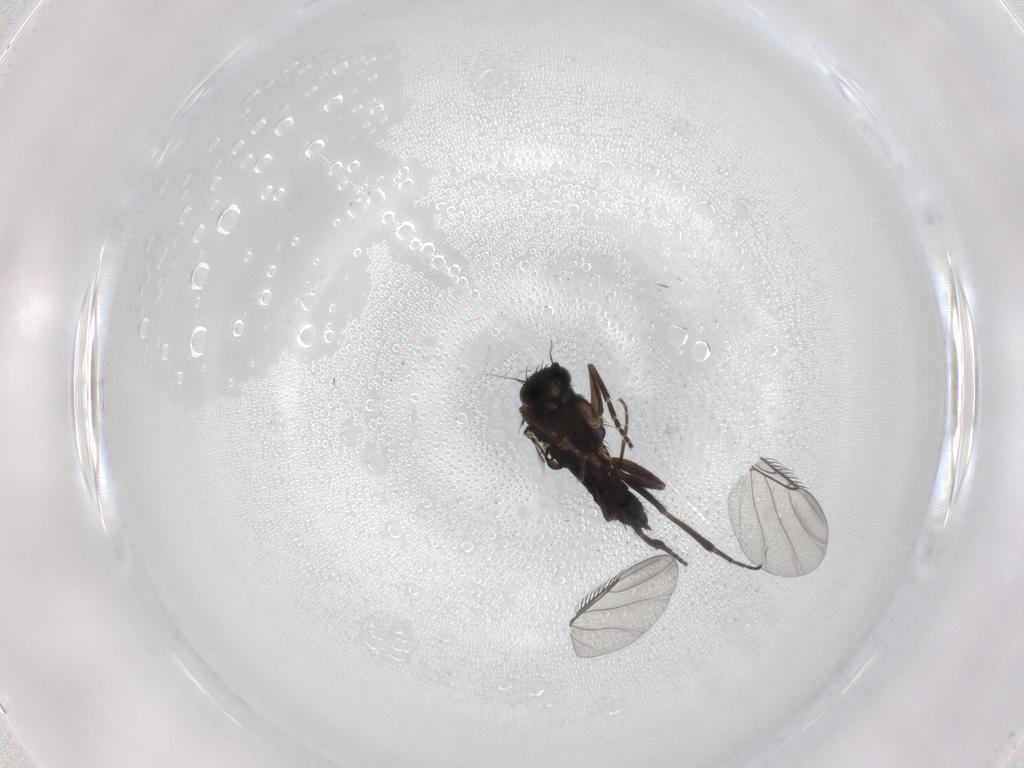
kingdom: Animalia
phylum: Arthropoda
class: Insecta
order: Diptera
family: Phoridae
